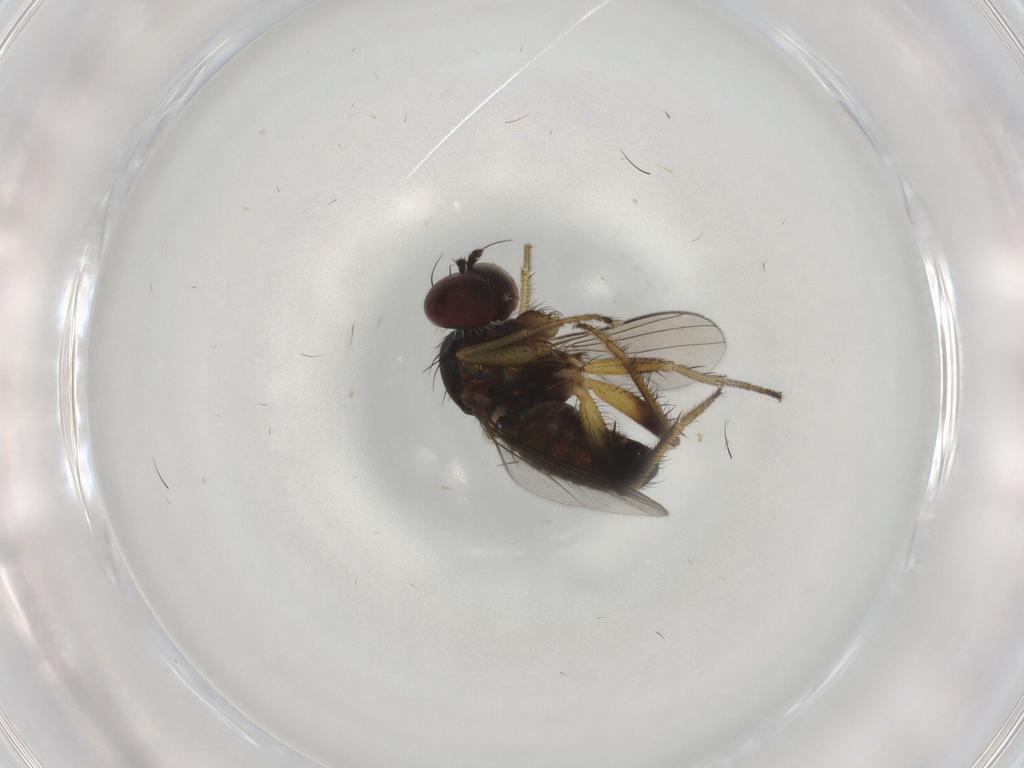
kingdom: Animalia
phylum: Arthropoda
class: Insecta
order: Diptera
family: Dolichopodidae
